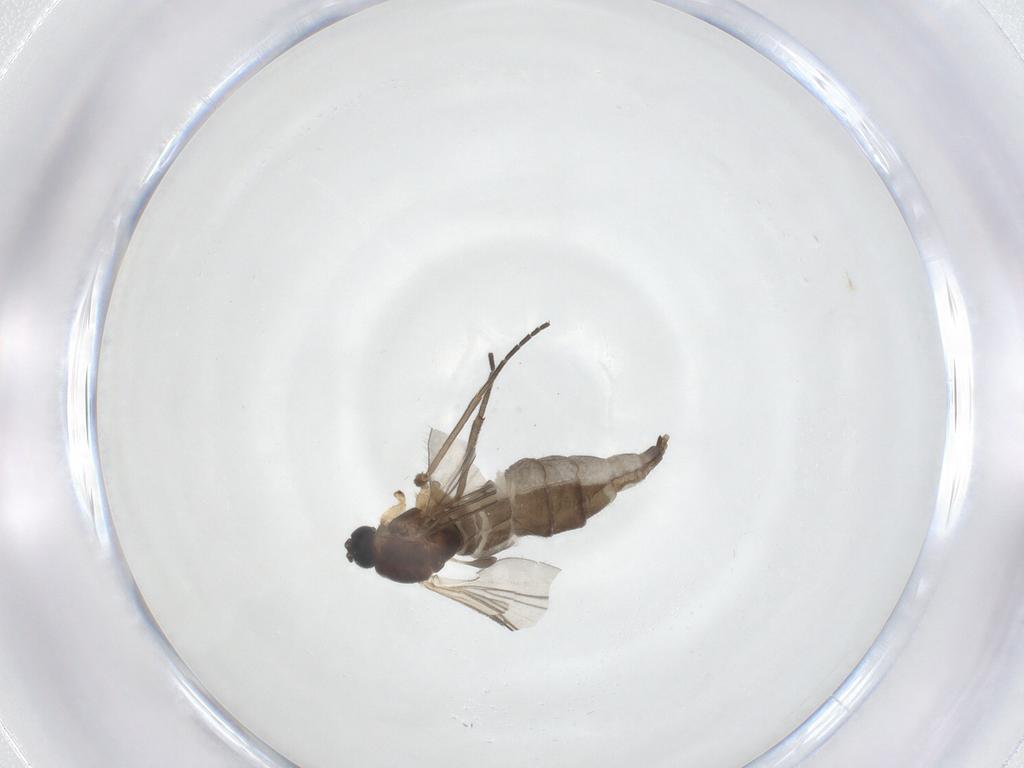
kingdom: Animalia
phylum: Arthropoda
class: Insecta
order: Diptera
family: Sciaridae
